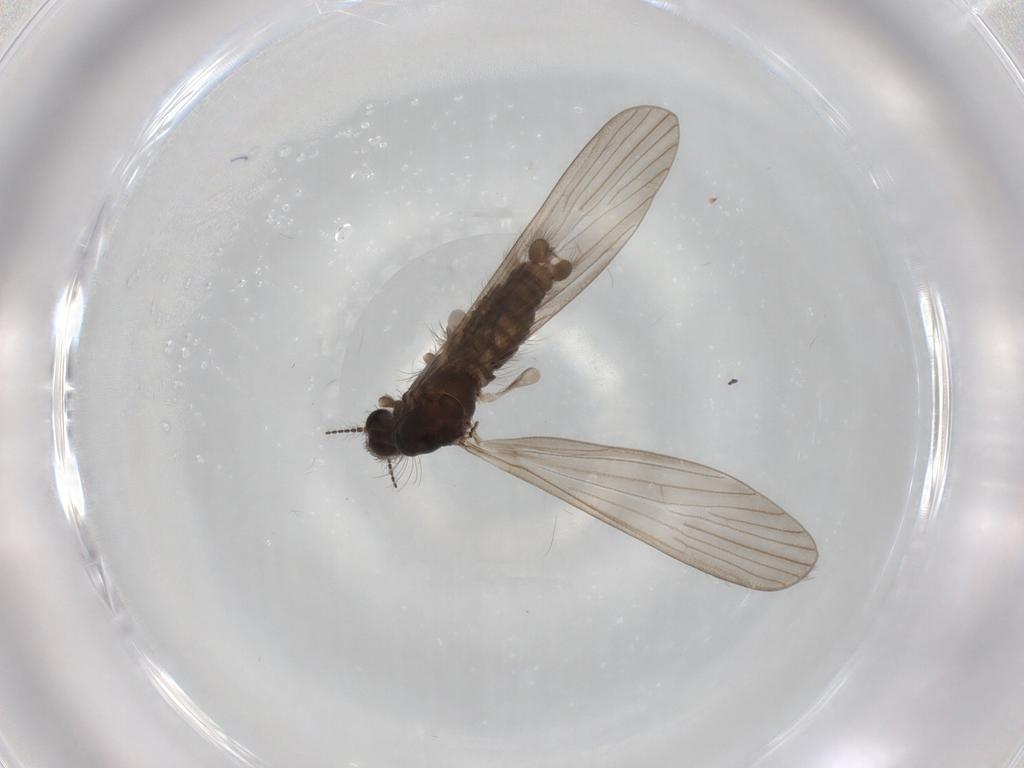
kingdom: Animalia
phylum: Arthropoda
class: Insecta
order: Diptera
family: Limoniidae
